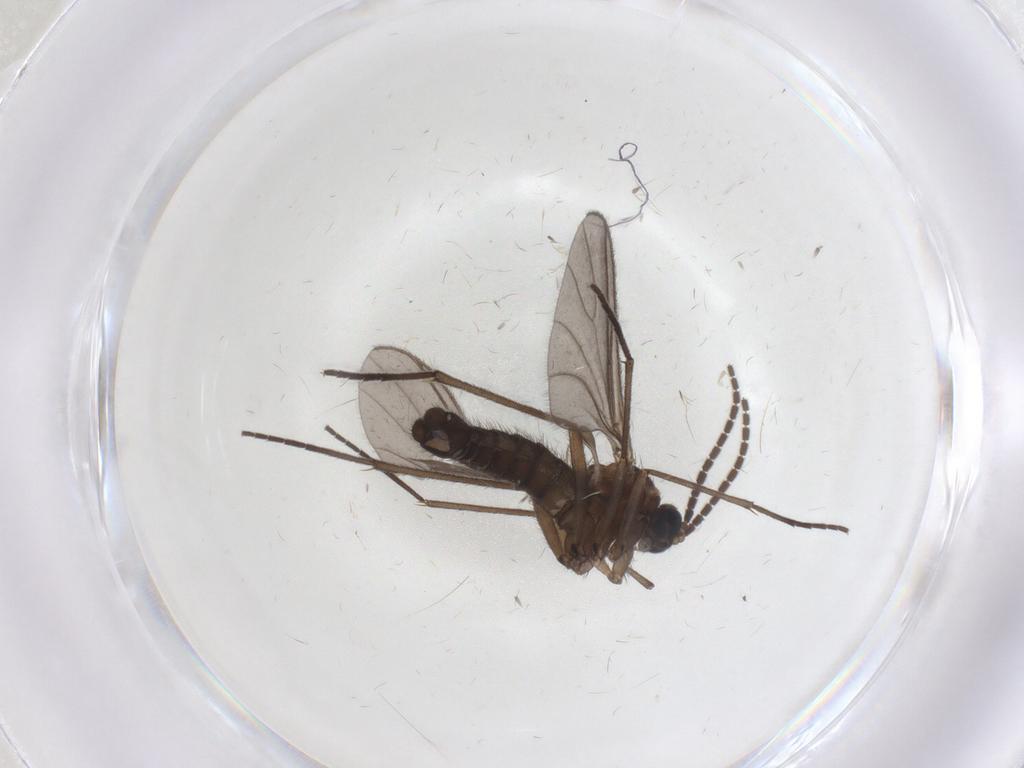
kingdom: Animalia
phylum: Arthropoda
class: Insecta
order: Diptera
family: Sciaridae
